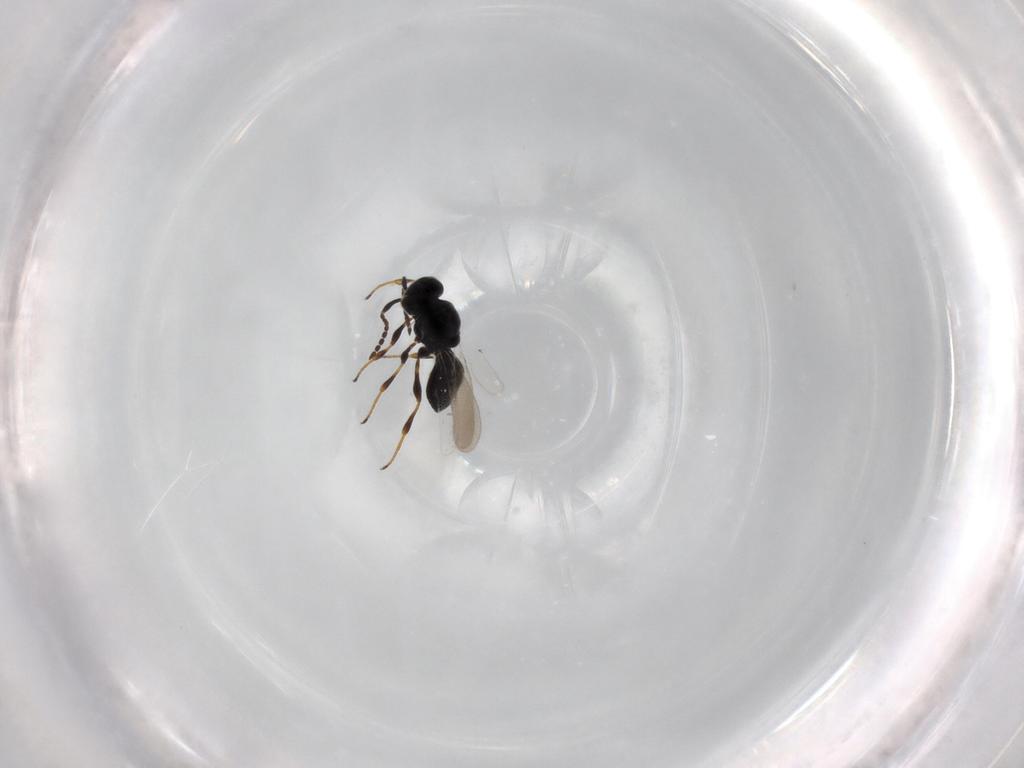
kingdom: Animalia
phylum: Arthropoda
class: Insecta
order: Hymenoptera
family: Platygastridae
